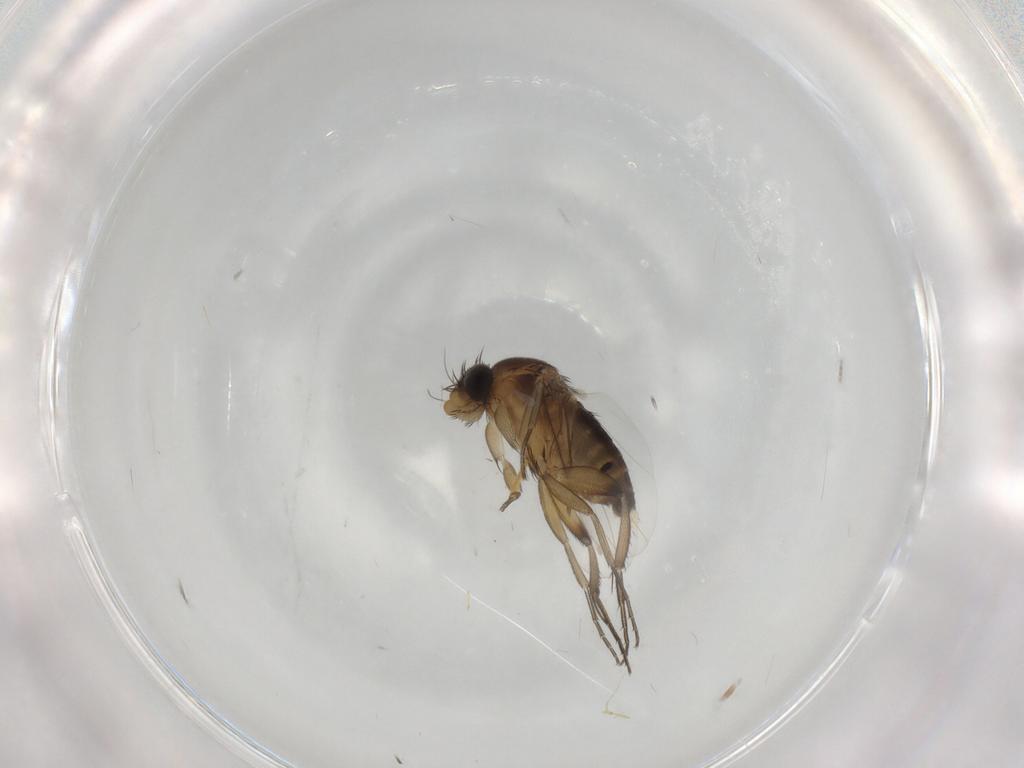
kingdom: Animalia
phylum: Arthropoda
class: Insecta
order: Diptera
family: Phoridae
